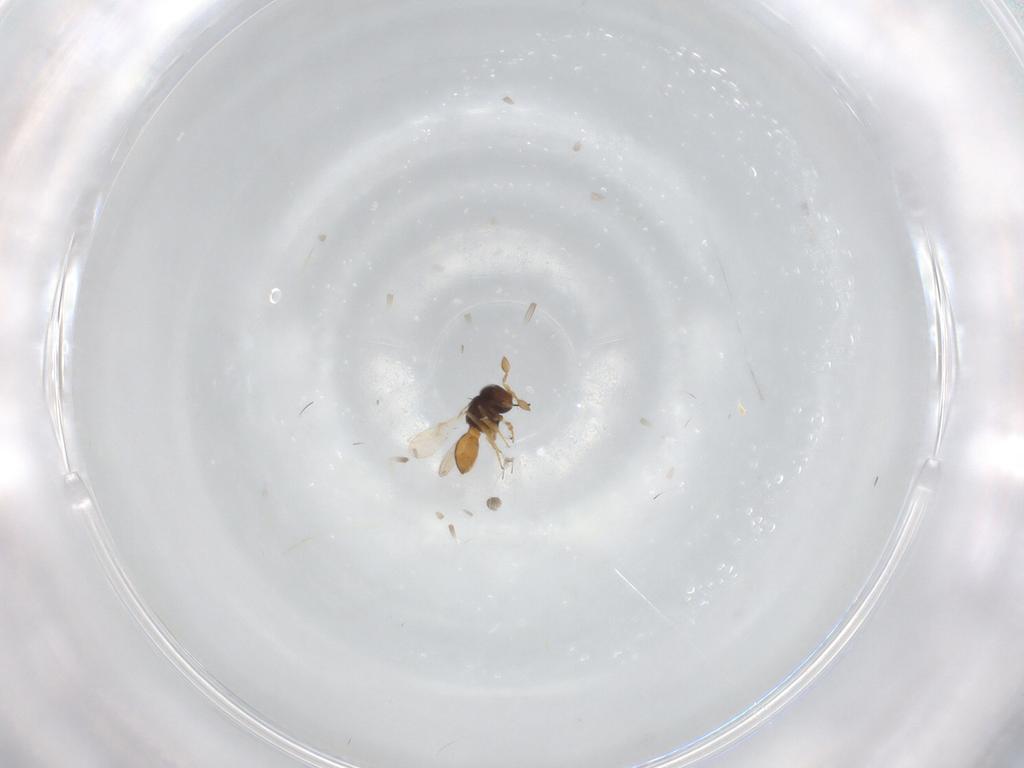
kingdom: Animalia
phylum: Arthropoda
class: Insecta
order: Hymenoptera
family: Scelionidae
